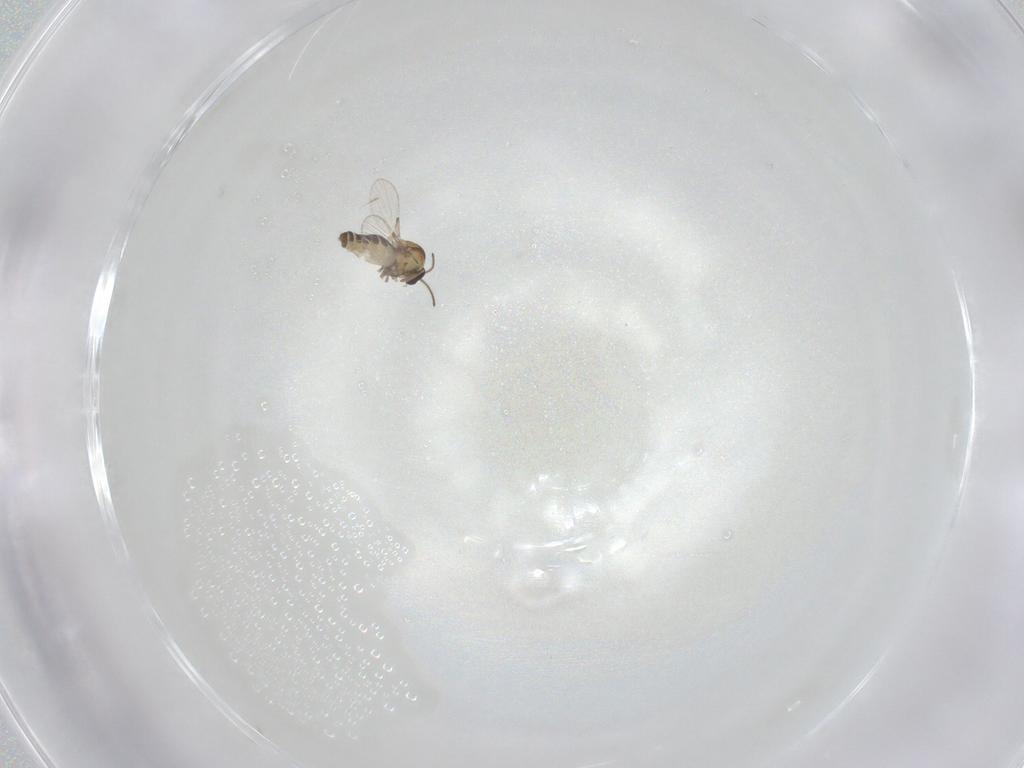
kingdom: Animalia
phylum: Arthropoda
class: Insecta
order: Diptera
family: Ceratopogonidae
